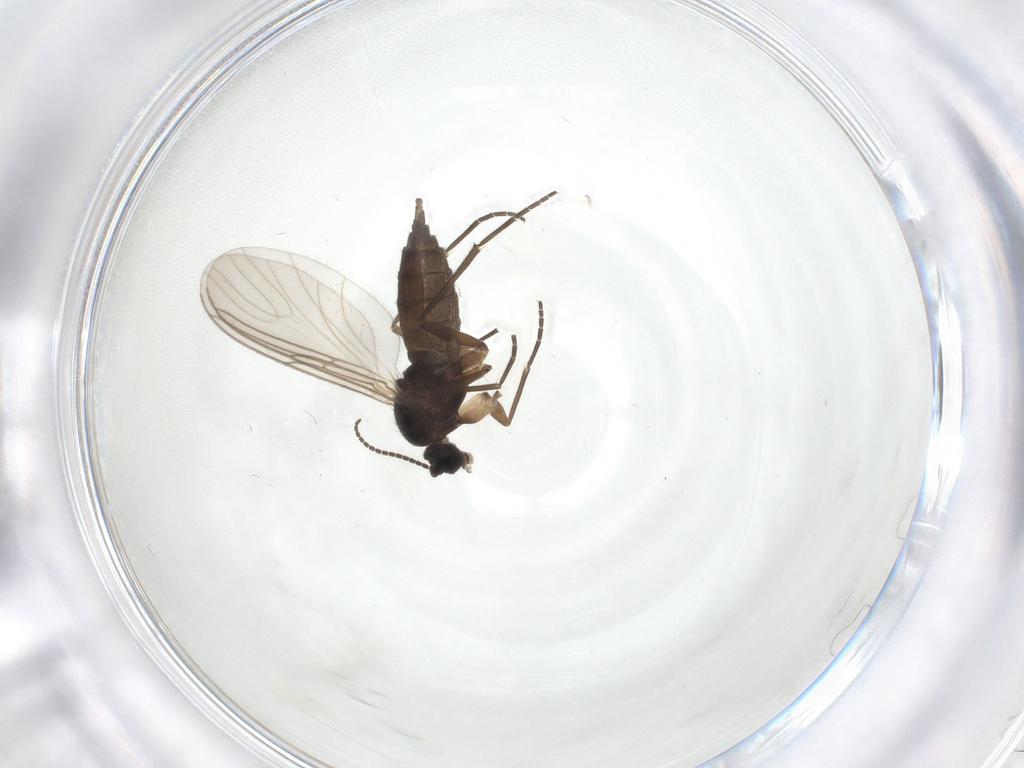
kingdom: Animalia
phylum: Arthropoda
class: Insecta
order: Diptera
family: Sciaridae
